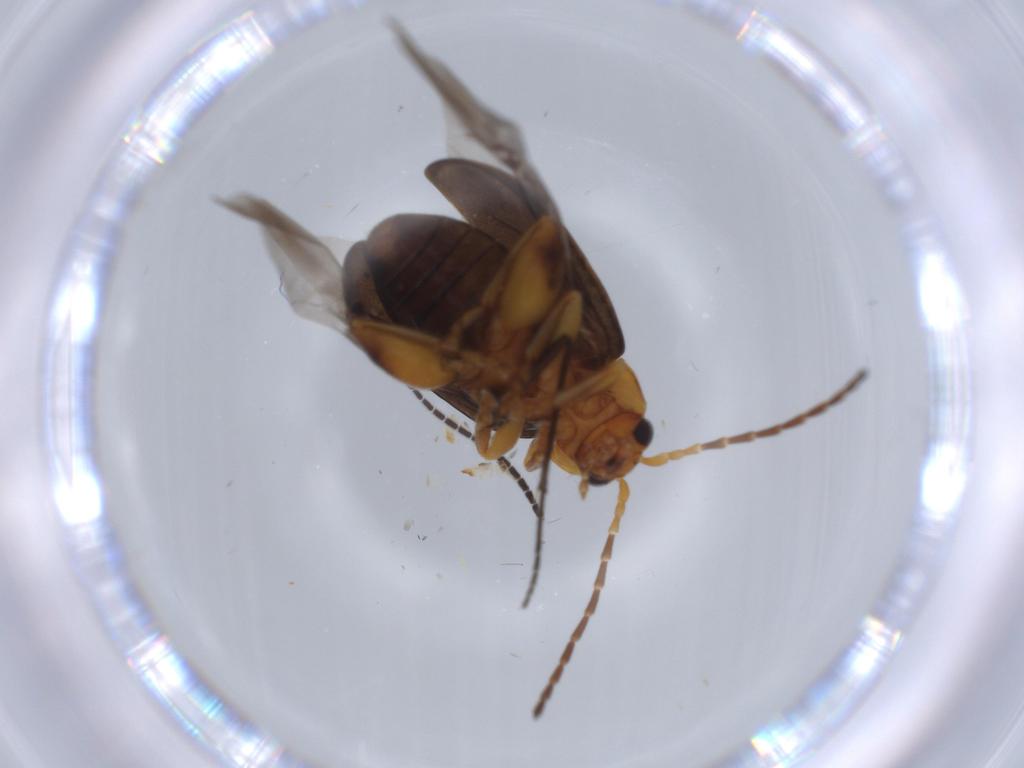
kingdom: Animalia
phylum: Arthropoda
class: Insecta
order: Coleoptera
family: Chrysomelidae
